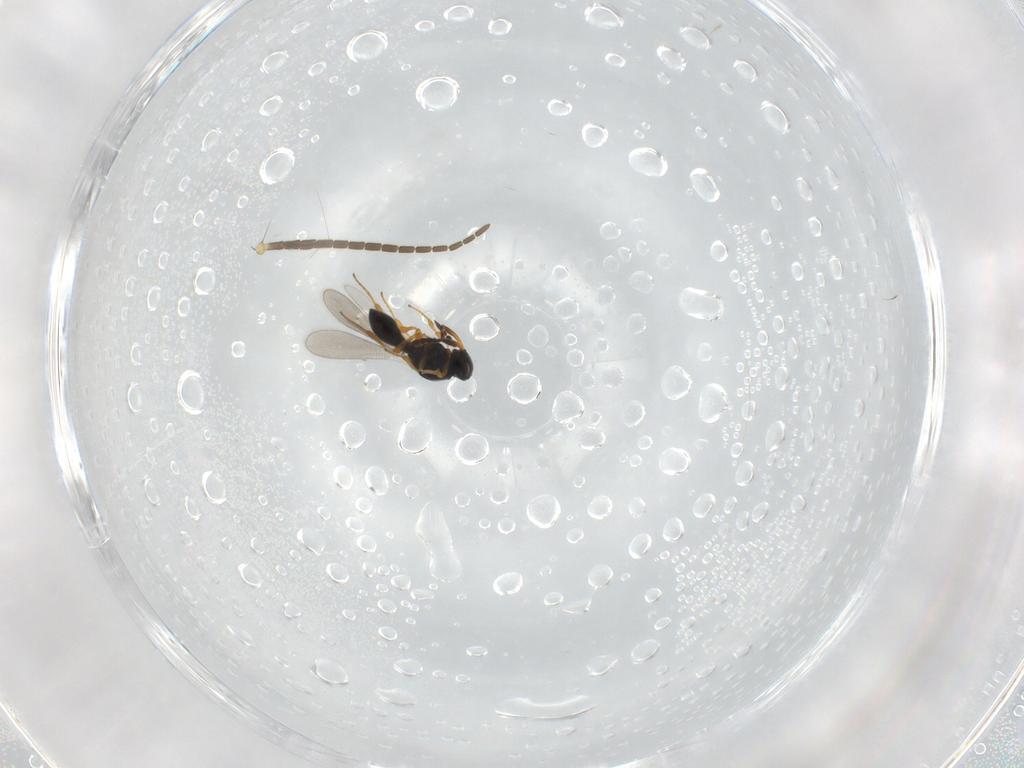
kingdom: Animalia
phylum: Arthropoda
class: Insecta
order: Hymenoptera
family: Platygastridae
